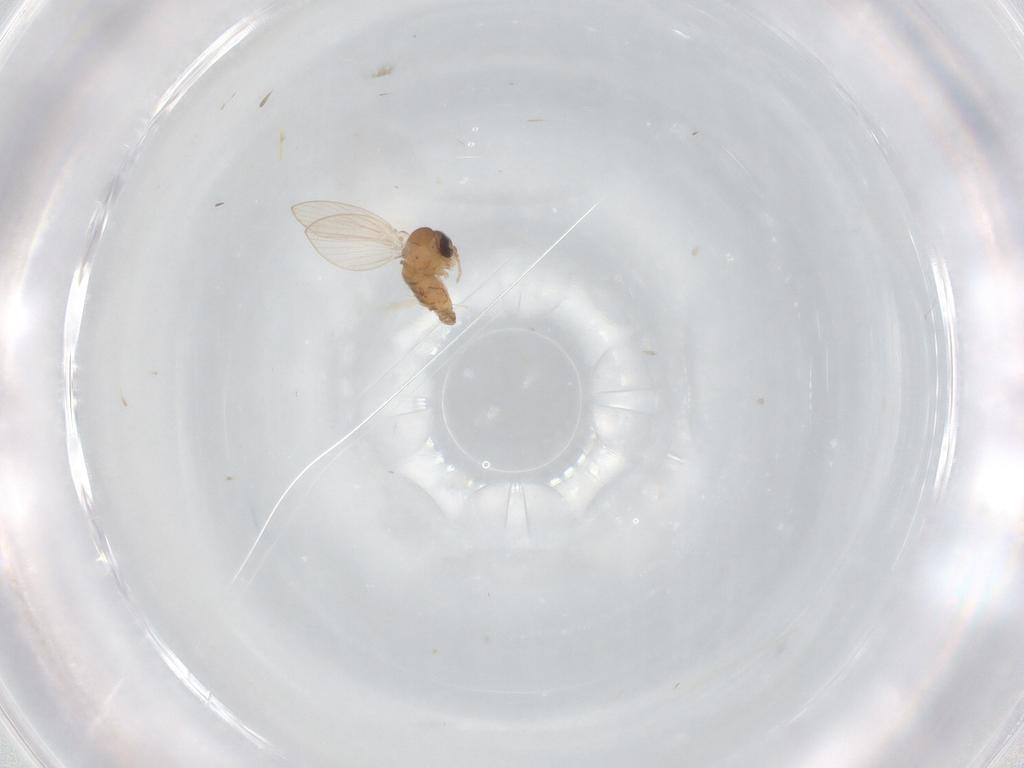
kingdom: Animalia
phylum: Arthropoda
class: Insecta
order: Diptera
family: Psychodidae
